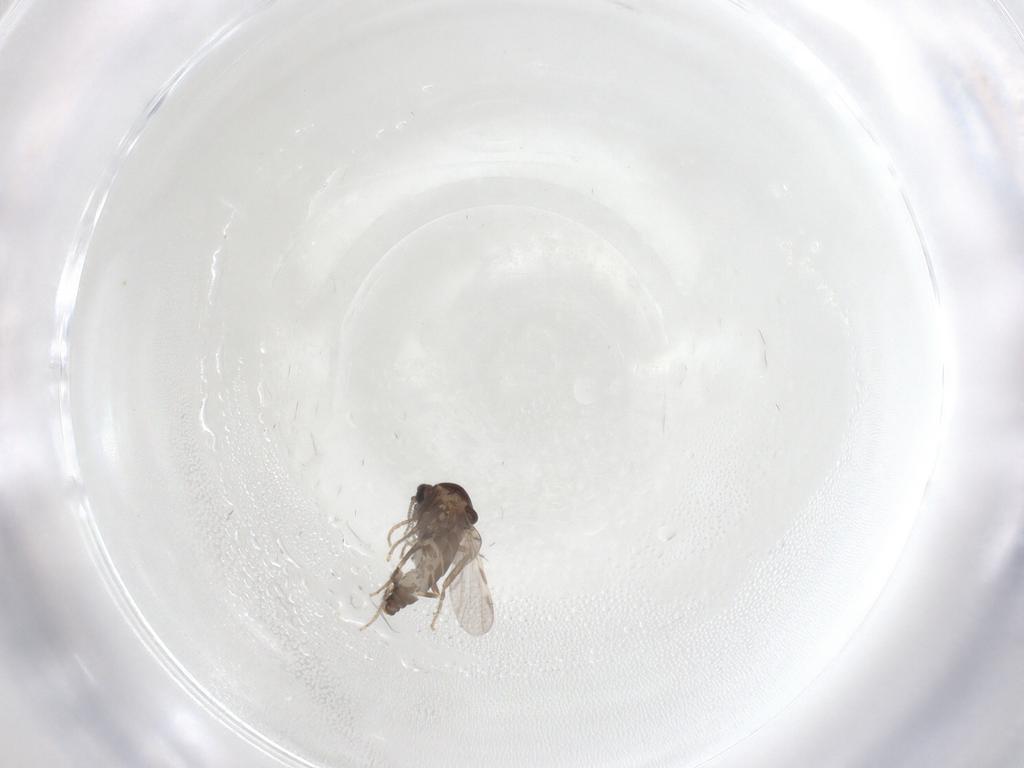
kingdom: Animalia
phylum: Arthropoda
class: Insecta
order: Diptera
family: Ceratopogonidae
